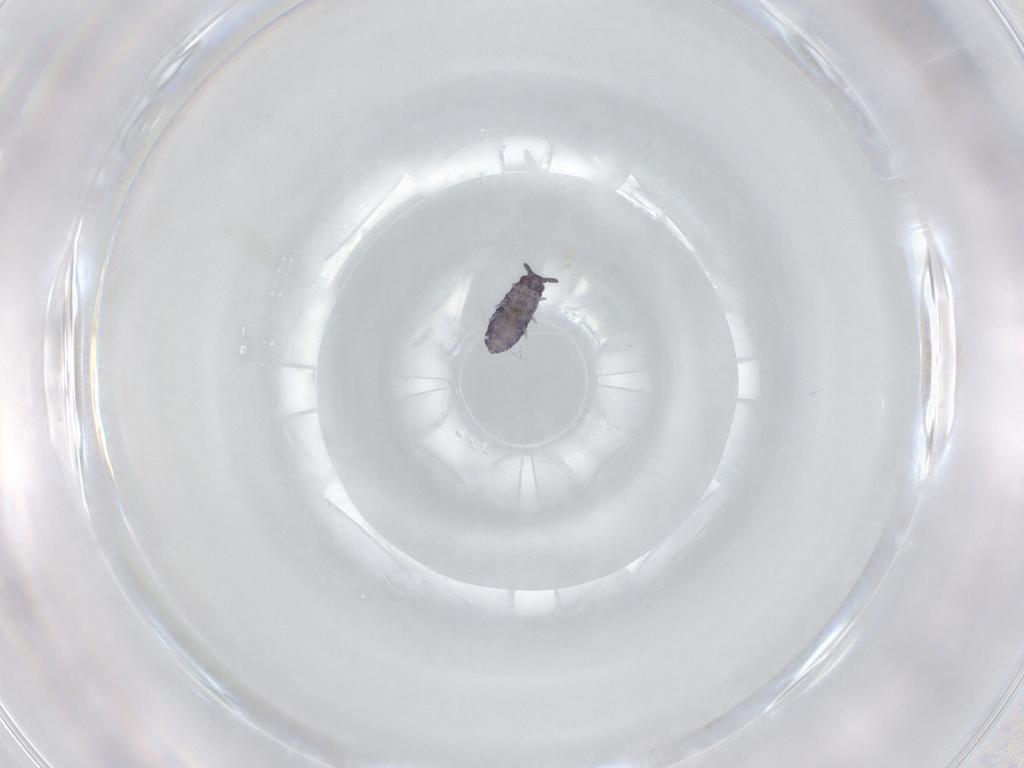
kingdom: Animalia
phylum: Arthropoda
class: Collembola
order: Poduromorpha
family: Brachystomellidae
